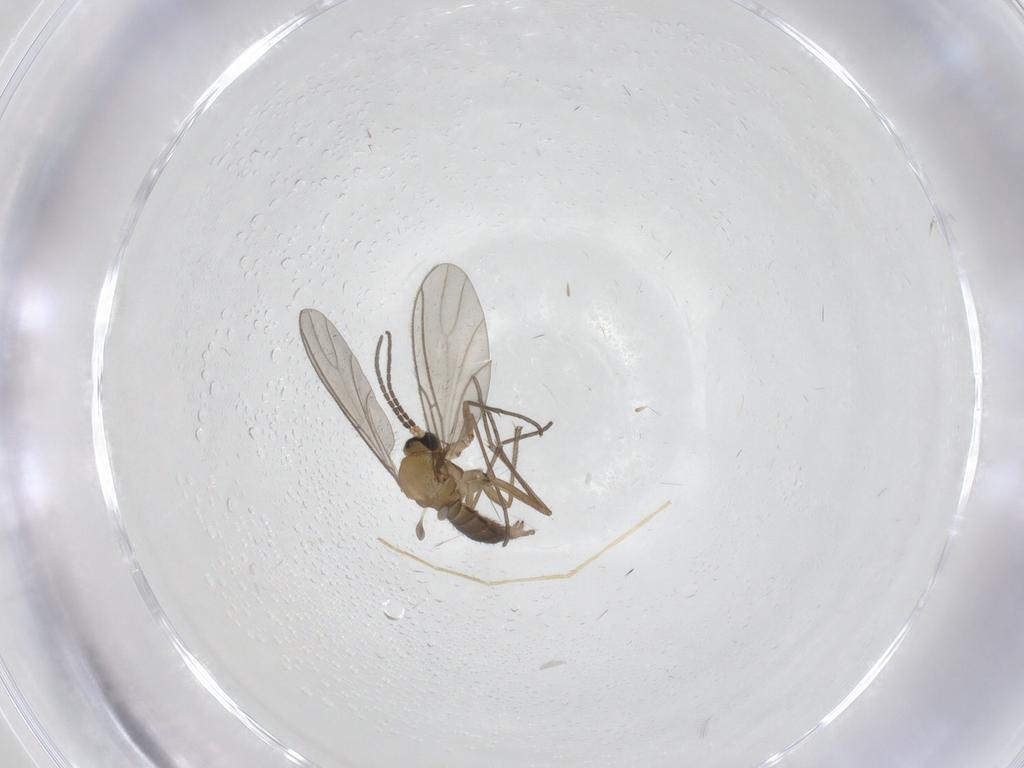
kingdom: Animalia
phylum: Arthropoda
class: Insecta
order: Diptera
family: Sciaridae
